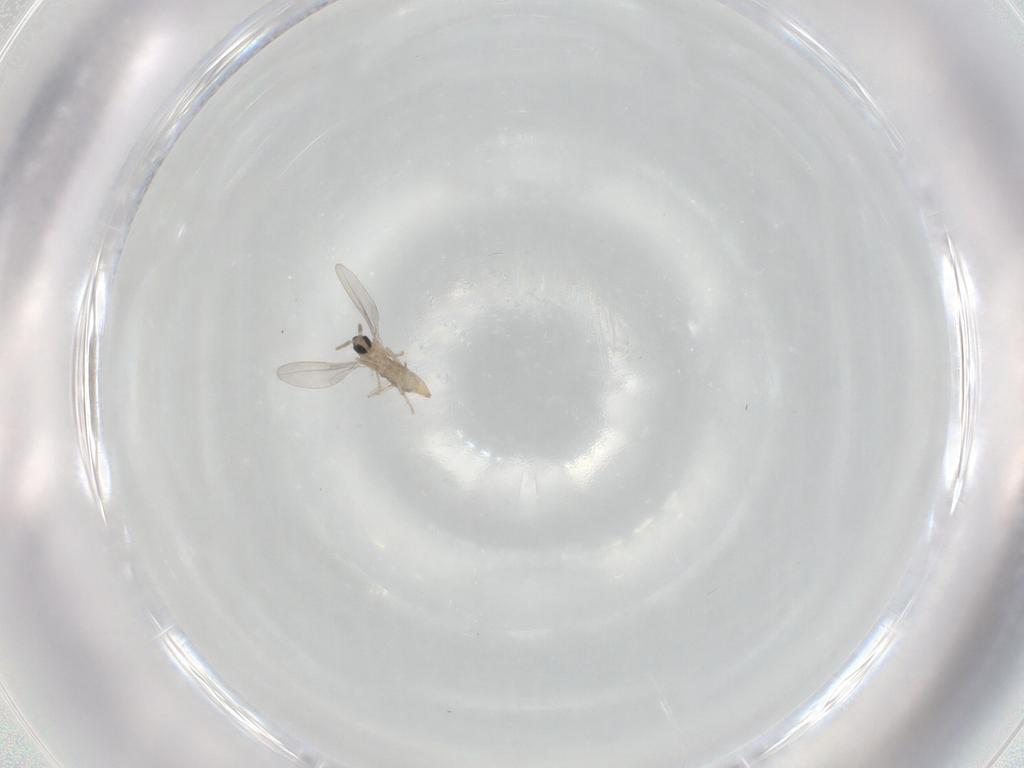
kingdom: Animalia
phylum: Arthropoda
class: Insecta
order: Diptera
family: Cecidomyiidae
